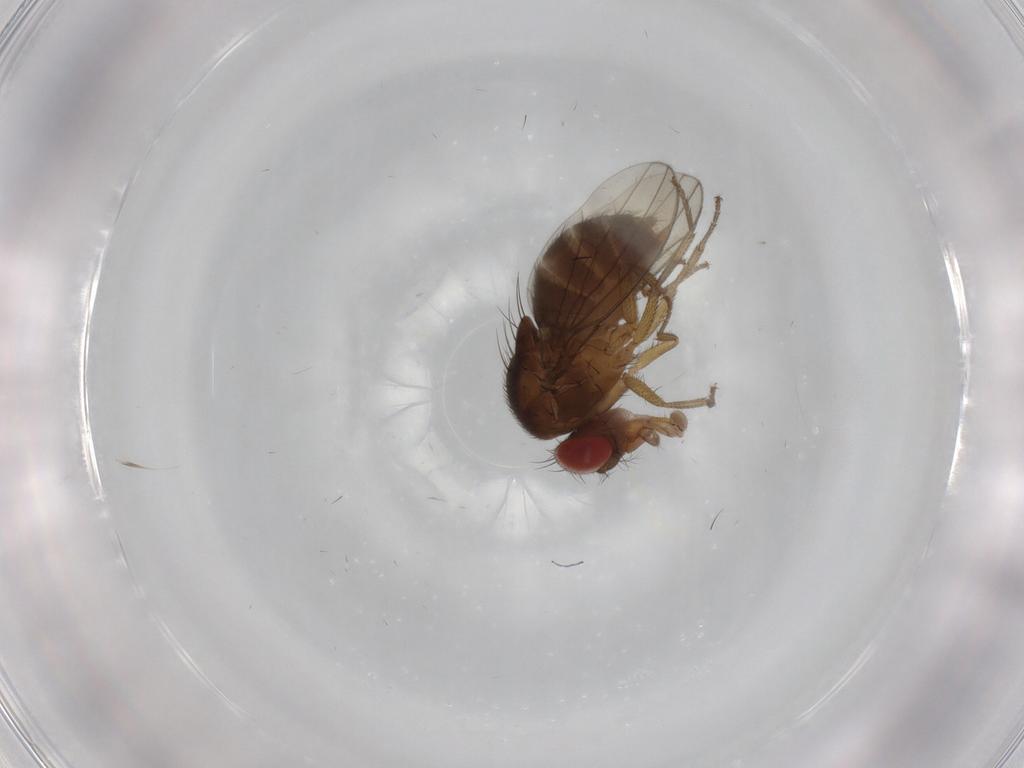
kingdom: Animalia
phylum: Arthropoda
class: Insecta
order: Diptera
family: Drosophilidae
